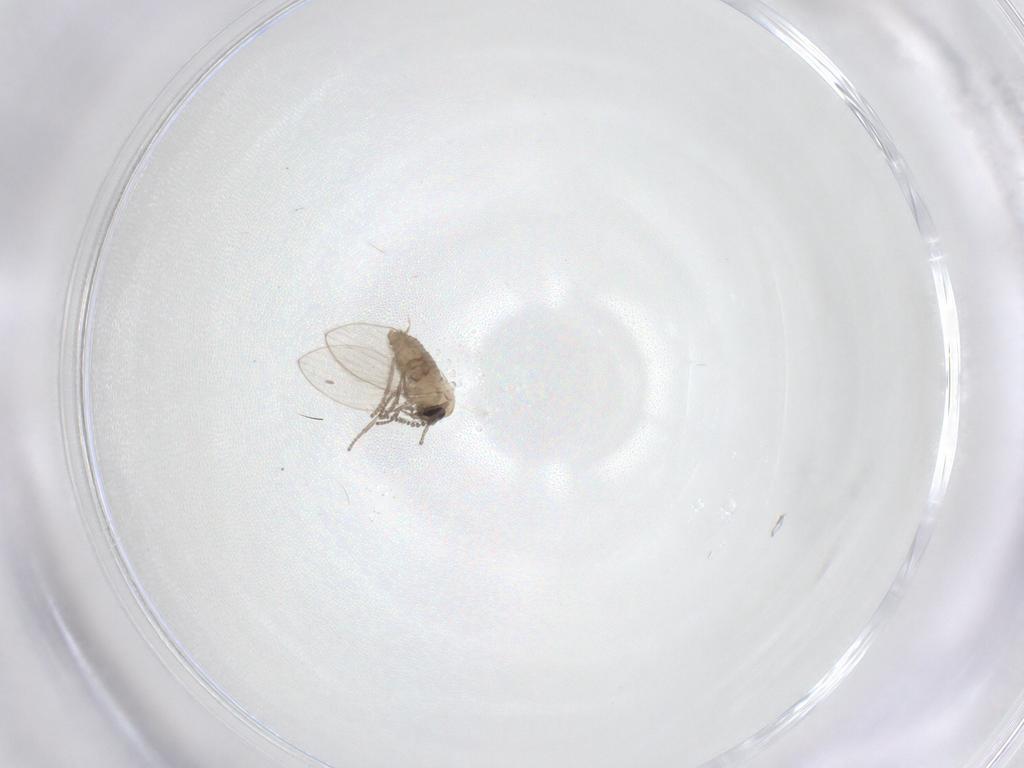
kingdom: Animalia
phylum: Arthropoda
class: Insecta
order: Diptera
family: Psychodidae
